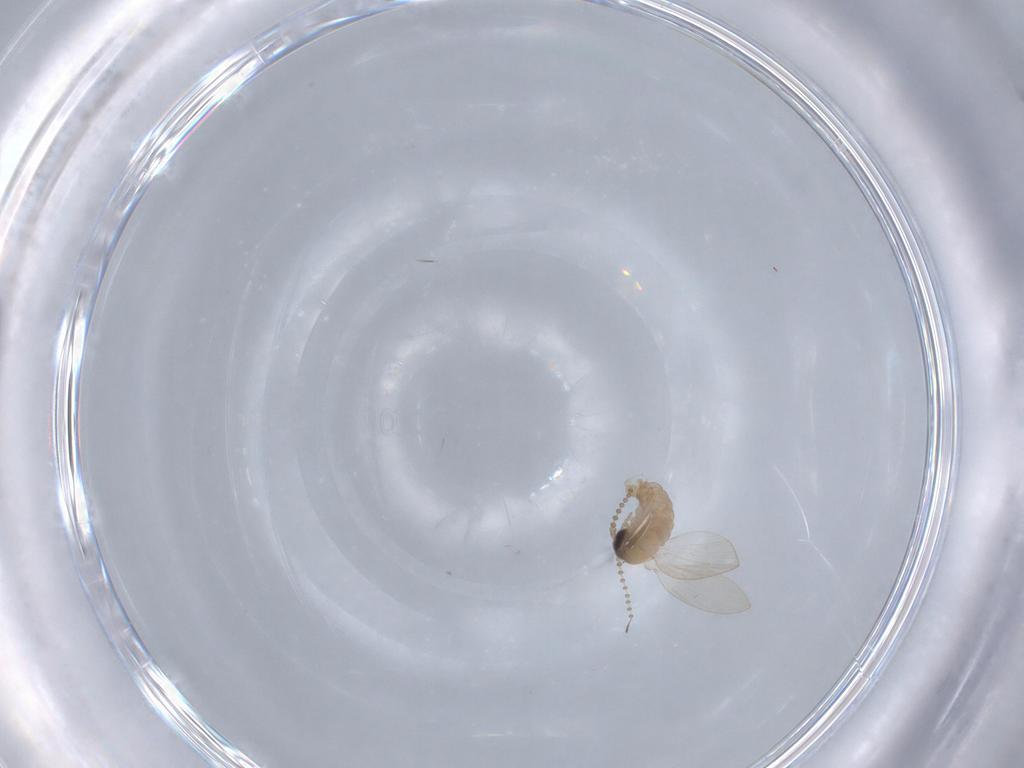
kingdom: Animalia
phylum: Arthropoda
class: Insecta
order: Diptera
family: Psychodidae
